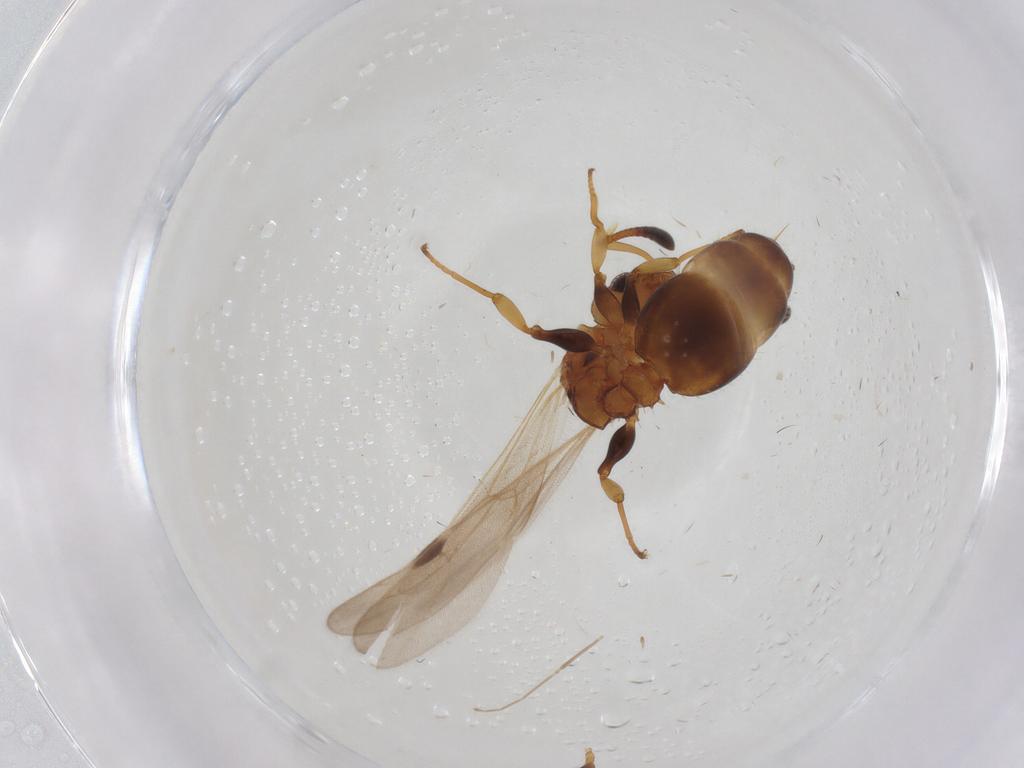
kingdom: Animalia
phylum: Arthropoda
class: Insecta
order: Hymenoptera
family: Formicidae
